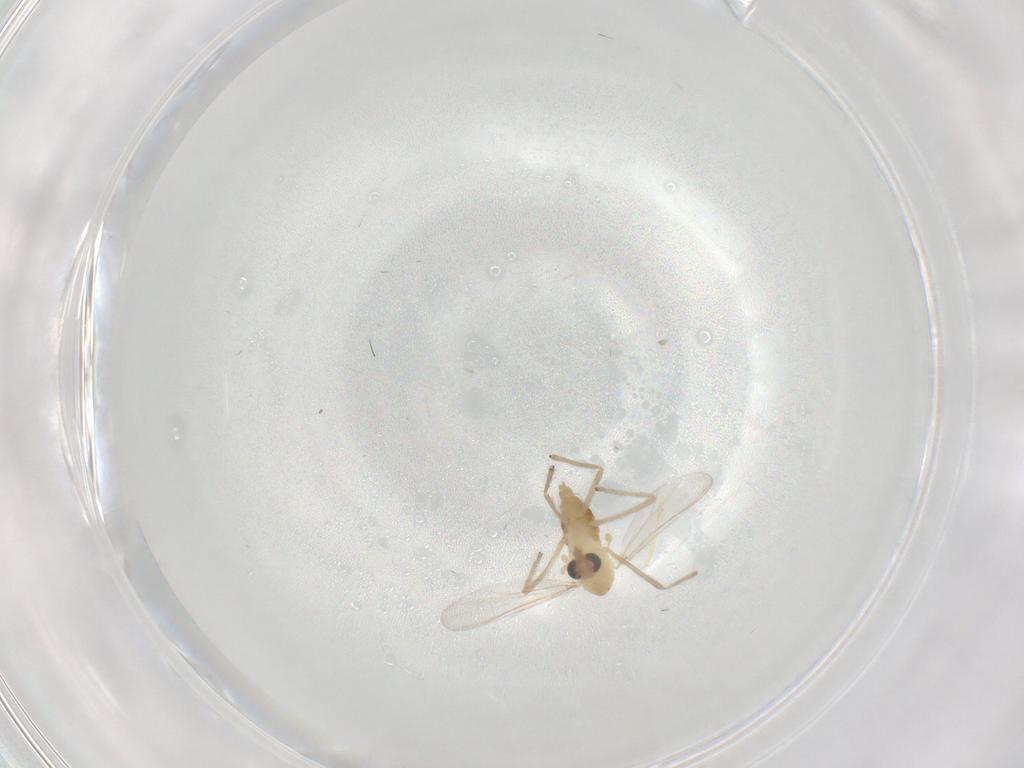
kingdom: Animalia
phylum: Arthropoda
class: Insecta
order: Diptera
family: Chironomidae
